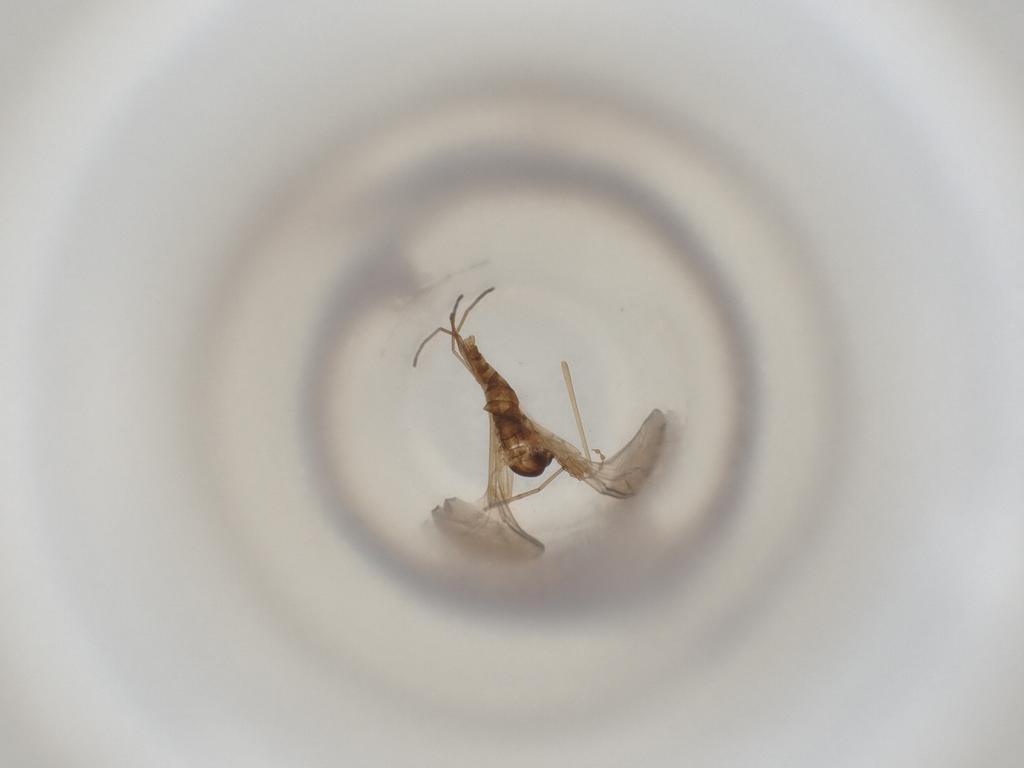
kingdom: Animalia
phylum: Arthropoda
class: Insecta
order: Diptera
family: Cecidomyiidae
